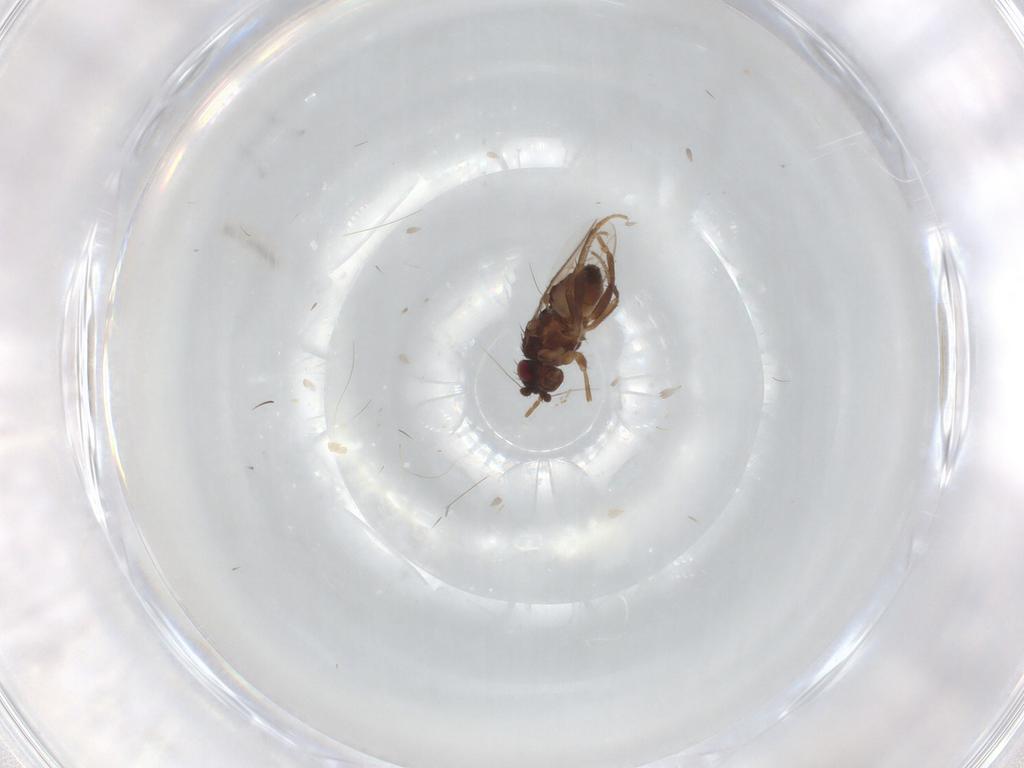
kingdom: Animalia
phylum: Arthropoda
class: Insecta
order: Diptera
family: Sphaeroceridae
